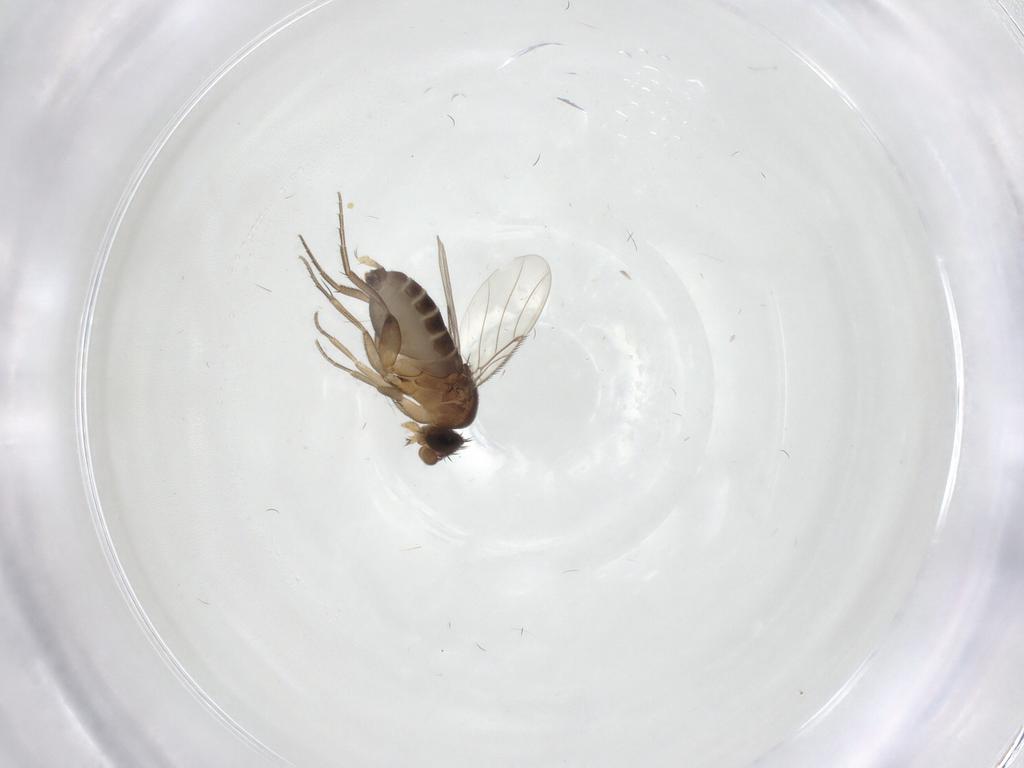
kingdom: Animalia
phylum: Arthropoda
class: Insecta
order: Diptera
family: Phoridae
